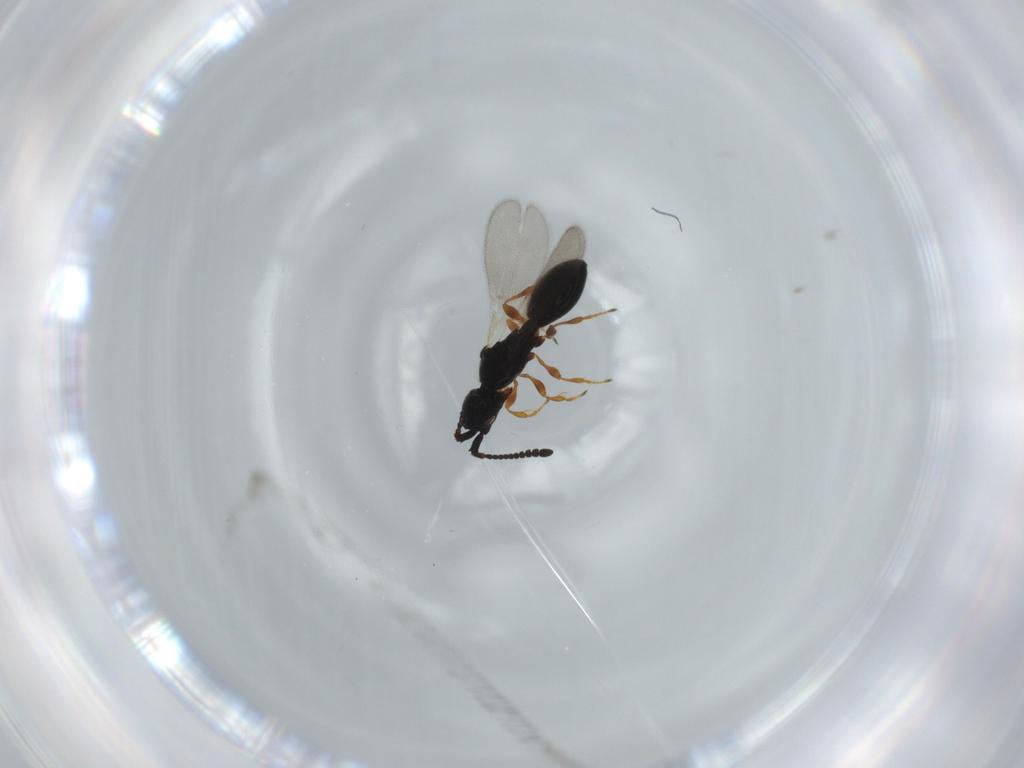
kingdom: Animalia
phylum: Arthropoda
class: Insecta
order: Hymenoptera
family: Diapriidae
